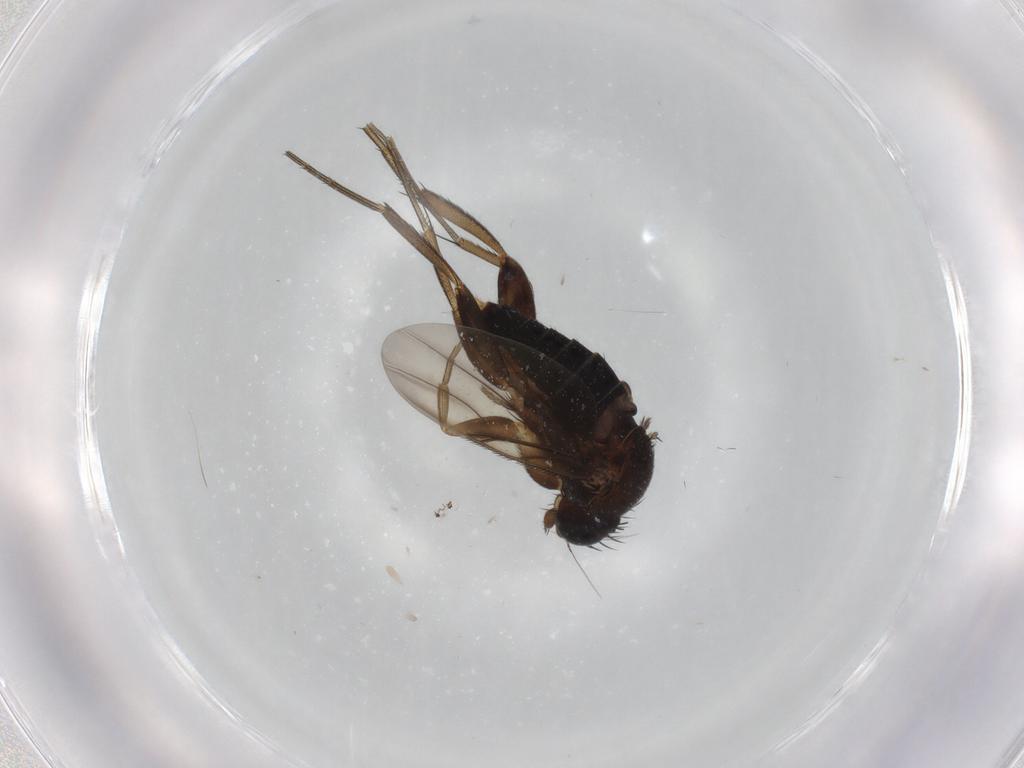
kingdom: Animalia
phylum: Arthropoda
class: Insecta
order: Diptera
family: Phoridae
